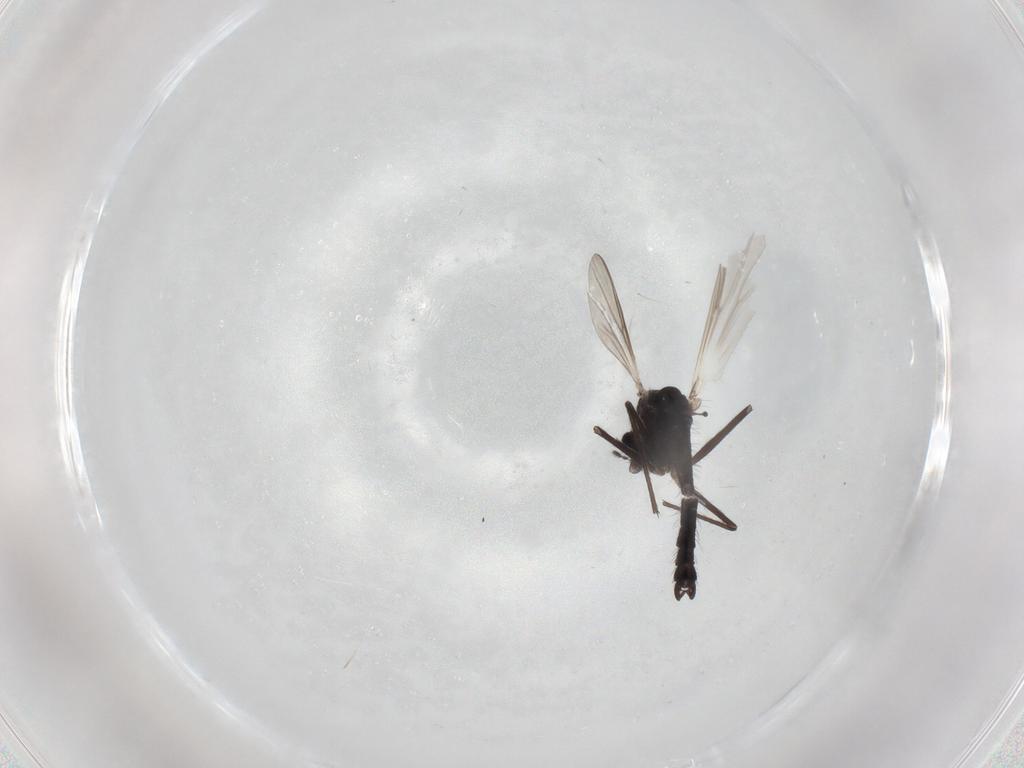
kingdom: Animalia
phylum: Arthropoda
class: Insecta
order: Diptera
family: Chironomidae
